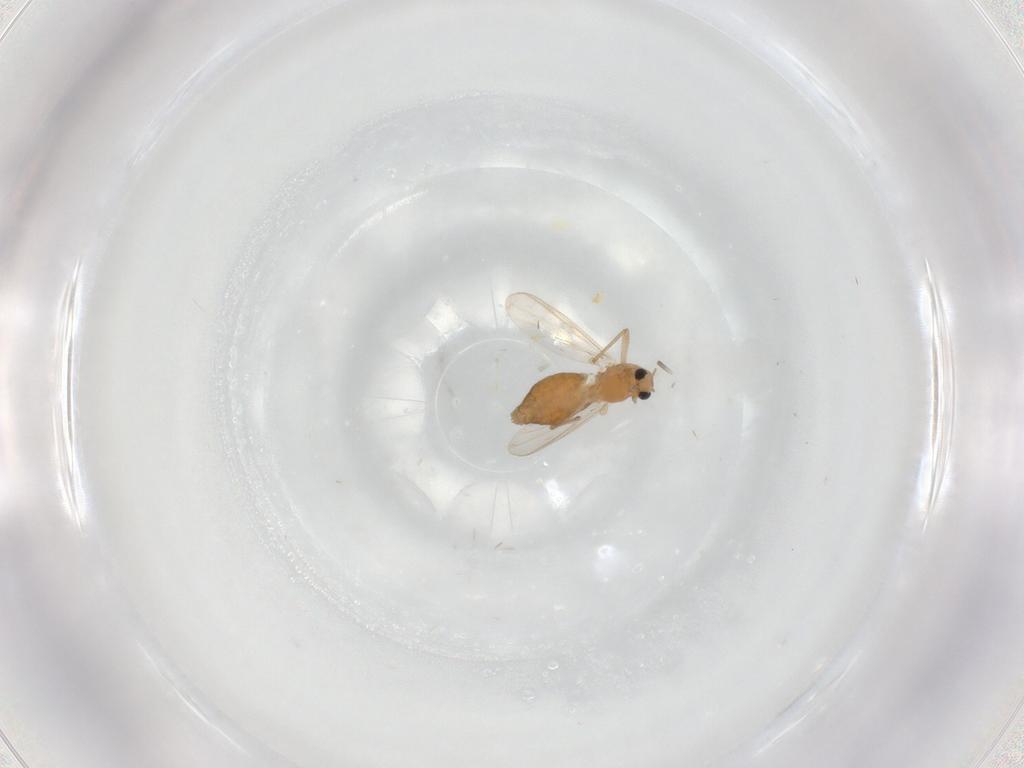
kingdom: Animalia
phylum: Arthropoda
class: Insecta
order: Diptera
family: Chironomidae
